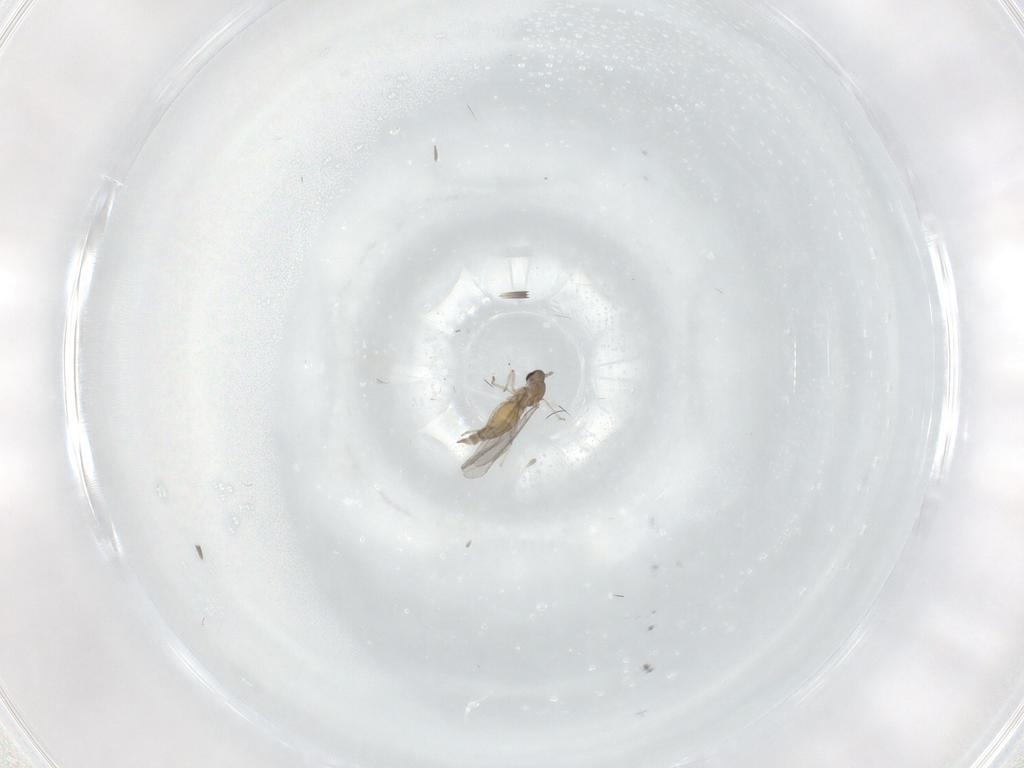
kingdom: Animalia
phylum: Arthropoda
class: Insecta
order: Diptera
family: Cecidomyiidae
